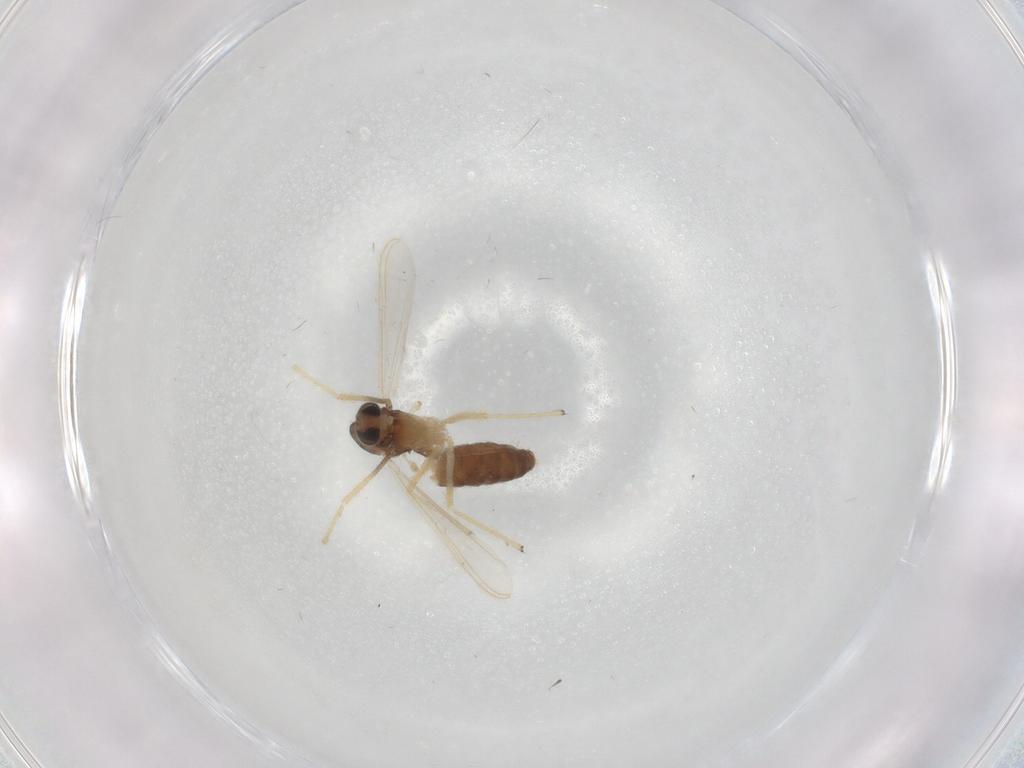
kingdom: Animalia
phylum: Arthropoda
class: Insecta
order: Diptera
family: Chironomidae
